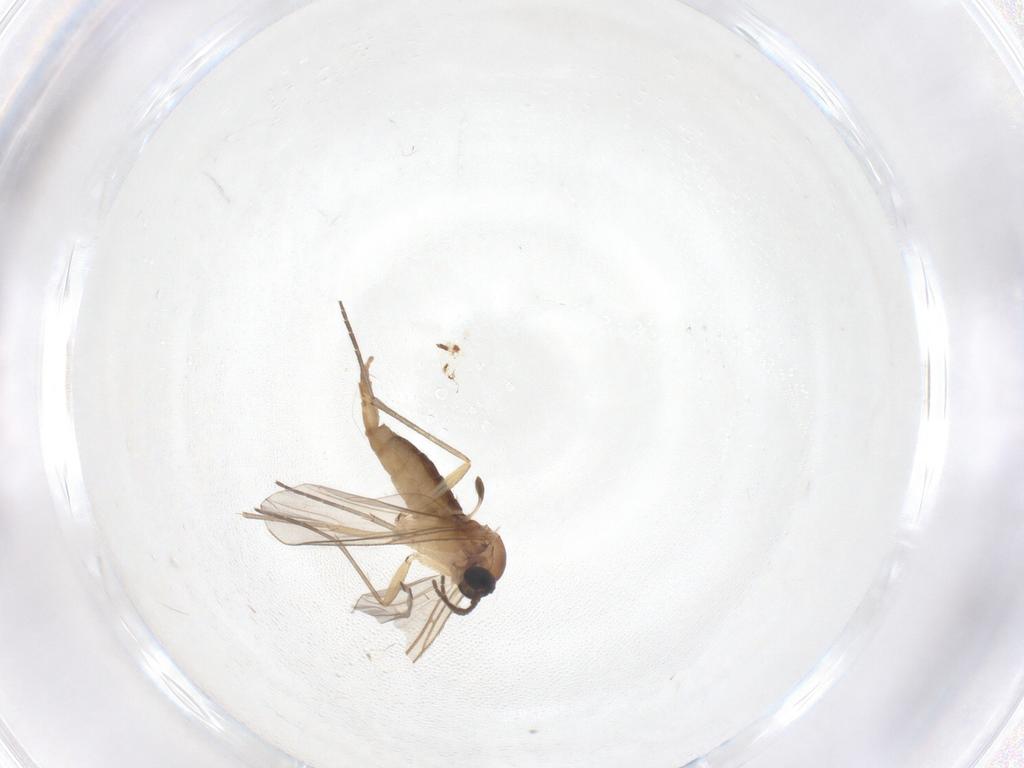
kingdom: Animalia
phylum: Arthropoda
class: Insecta
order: Diptera
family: Sciaridae
